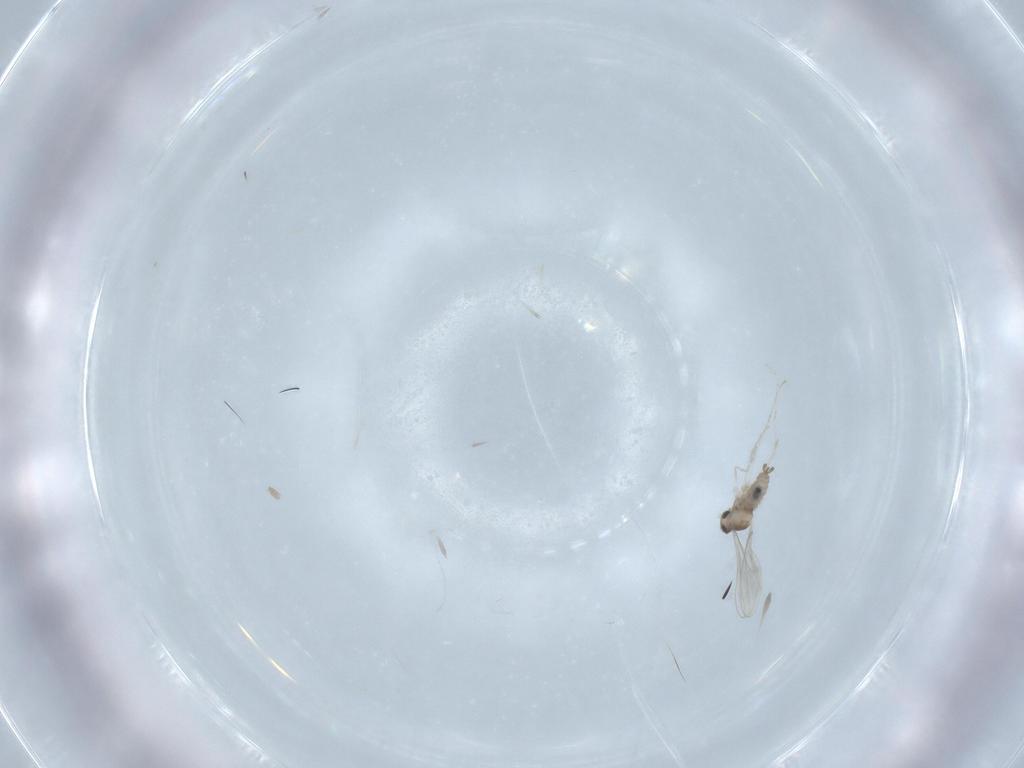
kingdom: Animalia
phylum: Arthropoda
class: Insecta
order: Diptera
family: Cecidomyiidae
